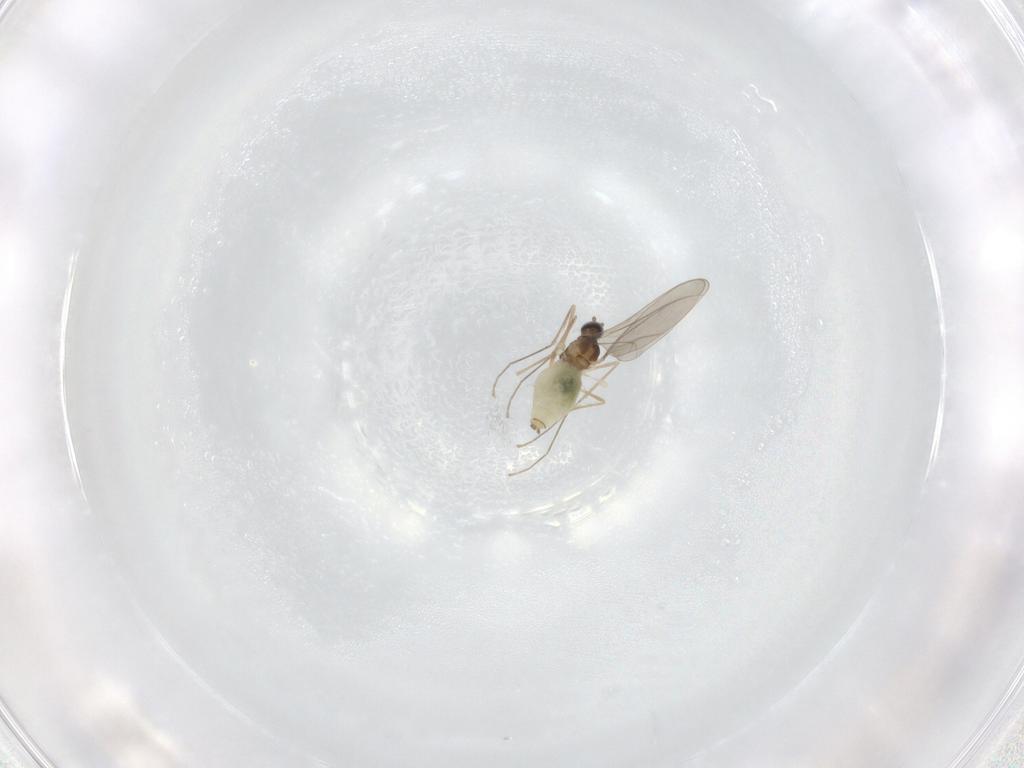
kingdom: Animalia
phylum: Arthropoda
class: Insecta
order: Diptera
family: Cecidomyiidae
